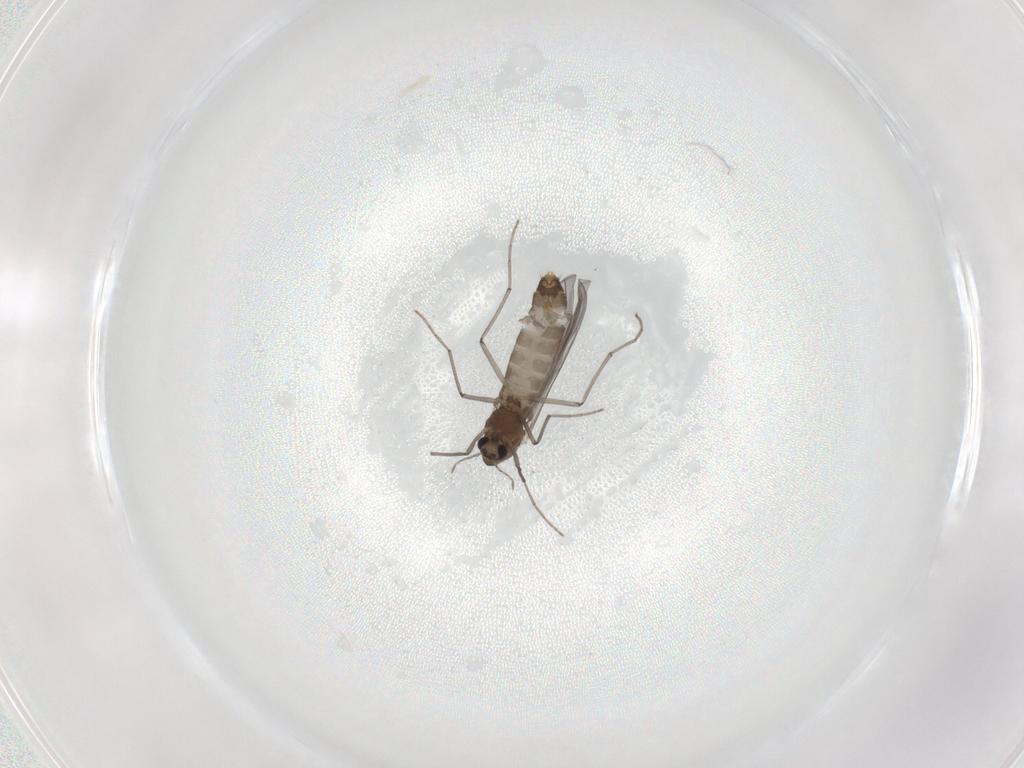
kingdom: Animalia
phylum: Arthropoda
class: Insecta
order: Diptera
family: Chironomidae
